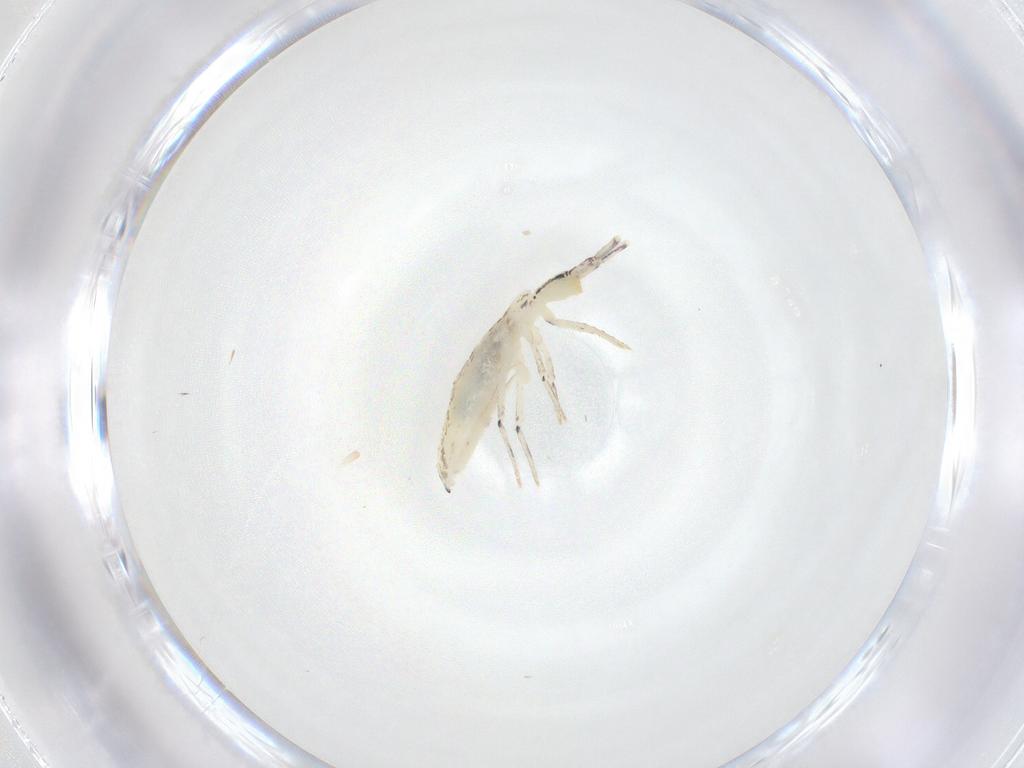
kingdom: Animalia
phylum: Arthropoda
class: Collembola
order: Entomobryomorpha
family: Entomobryidae
